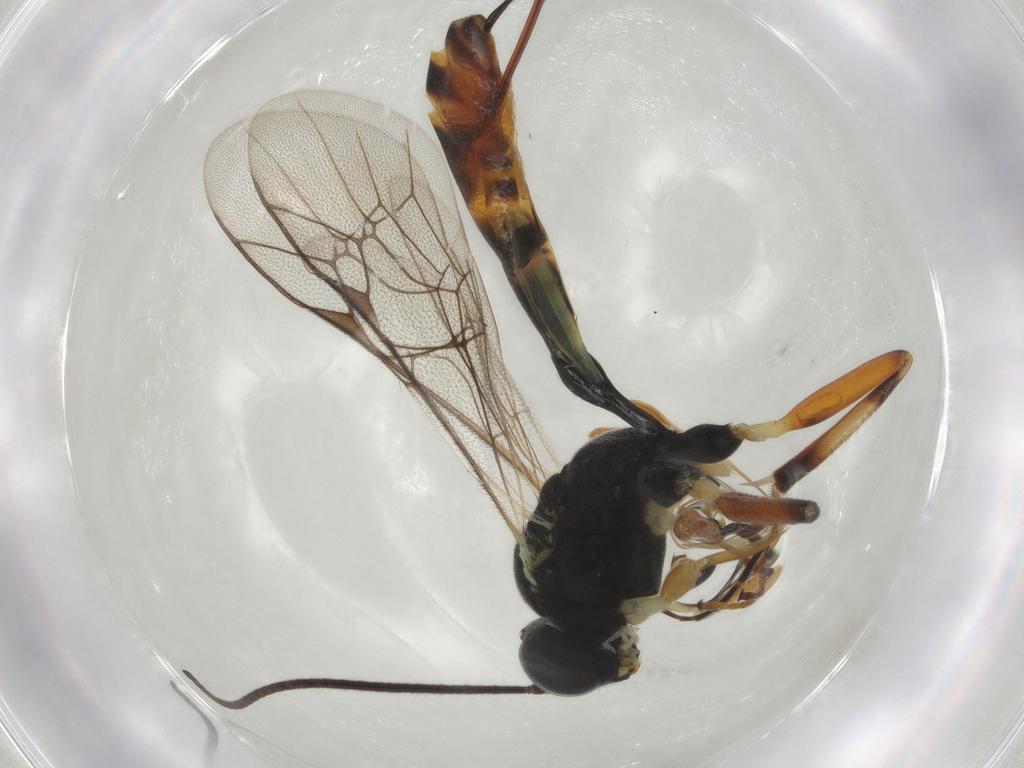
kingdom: Animalia
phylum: Arthropoda
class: Insecta
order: Hymenoptera
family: Ichneumonidae
